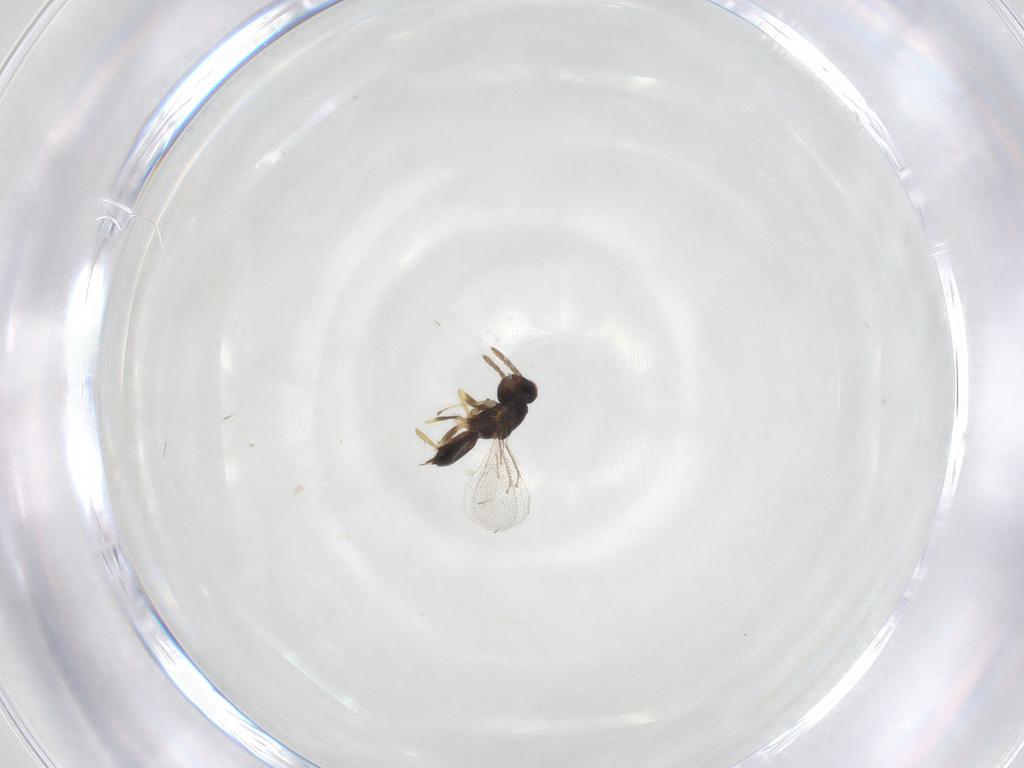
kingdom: Animalia
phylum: Arthropoda
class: Insecta
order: Hymenoptera
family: Eulophidae
